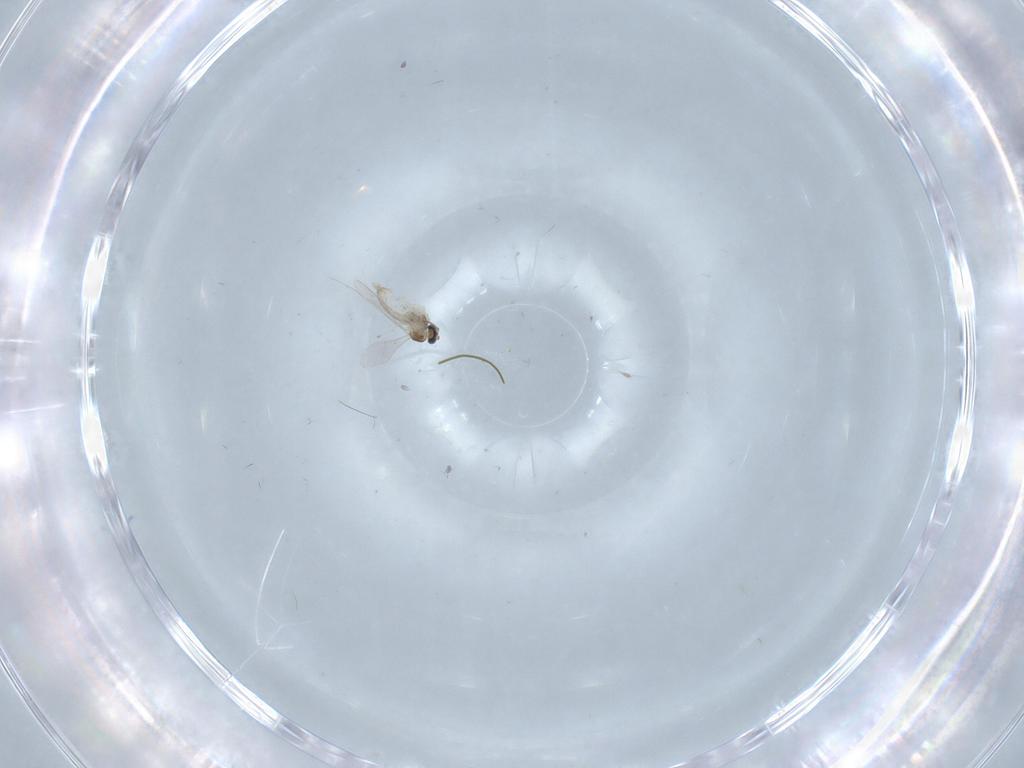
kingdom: Animalia
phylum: Arthropoda
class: Insecta
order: Diptera
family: Cecidomyiidae
